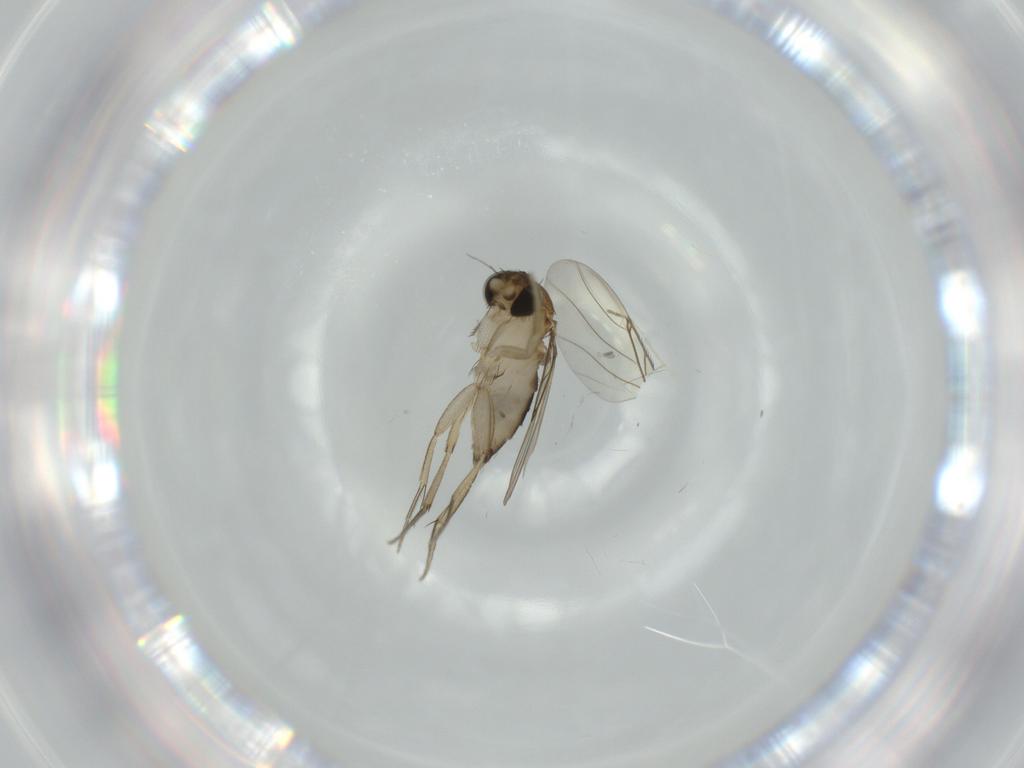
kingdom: Animalia
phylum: Arthropoda
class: Insecta
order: Diptera
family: Phoridae
